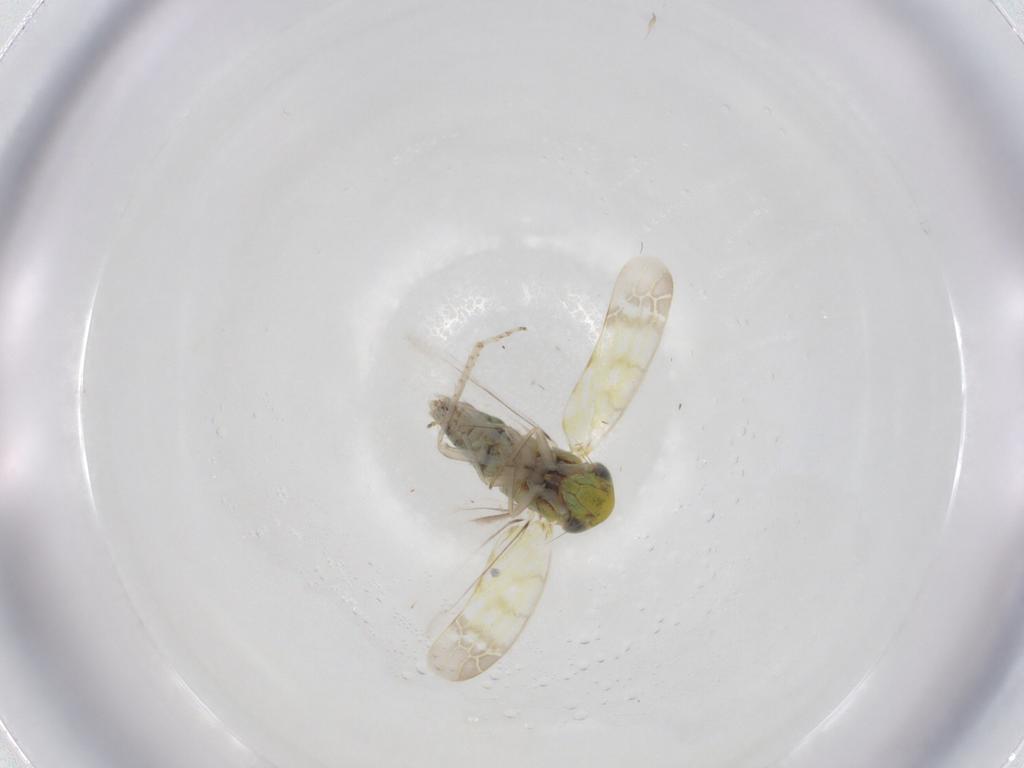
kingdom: Animalia
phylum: Arthropoda
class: Insecta
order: Hemiptera
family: Cicadellidae
